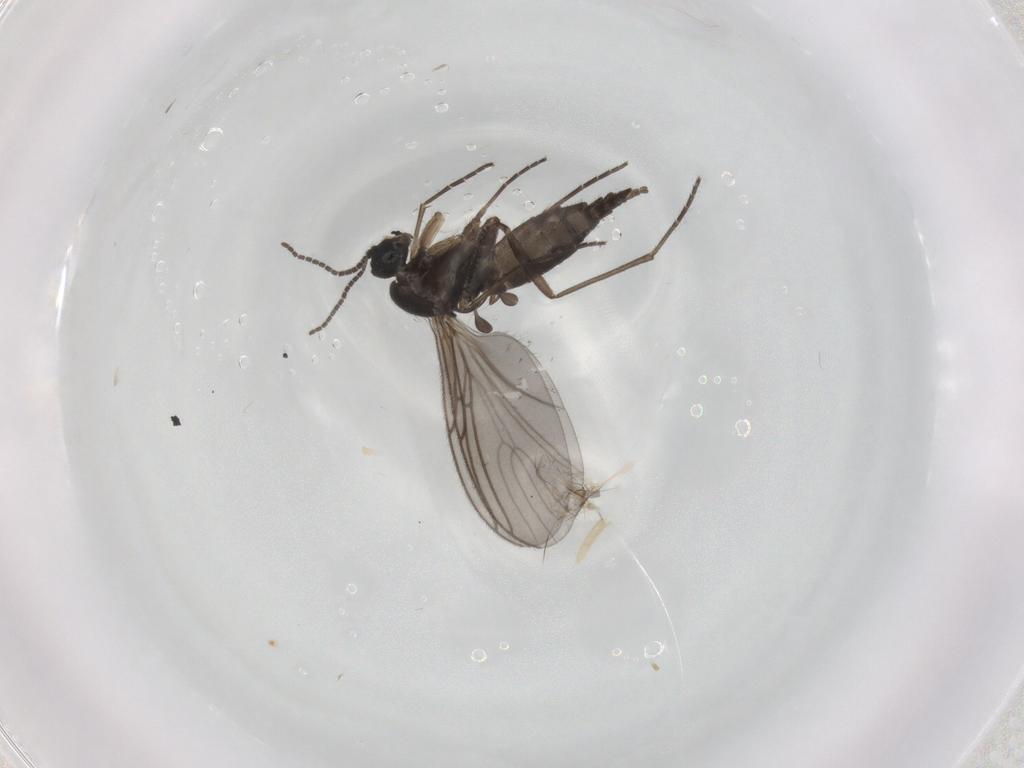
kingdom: Animalia
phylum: Arthropoda
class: Insecta
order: Diptera
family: Sciaridae
